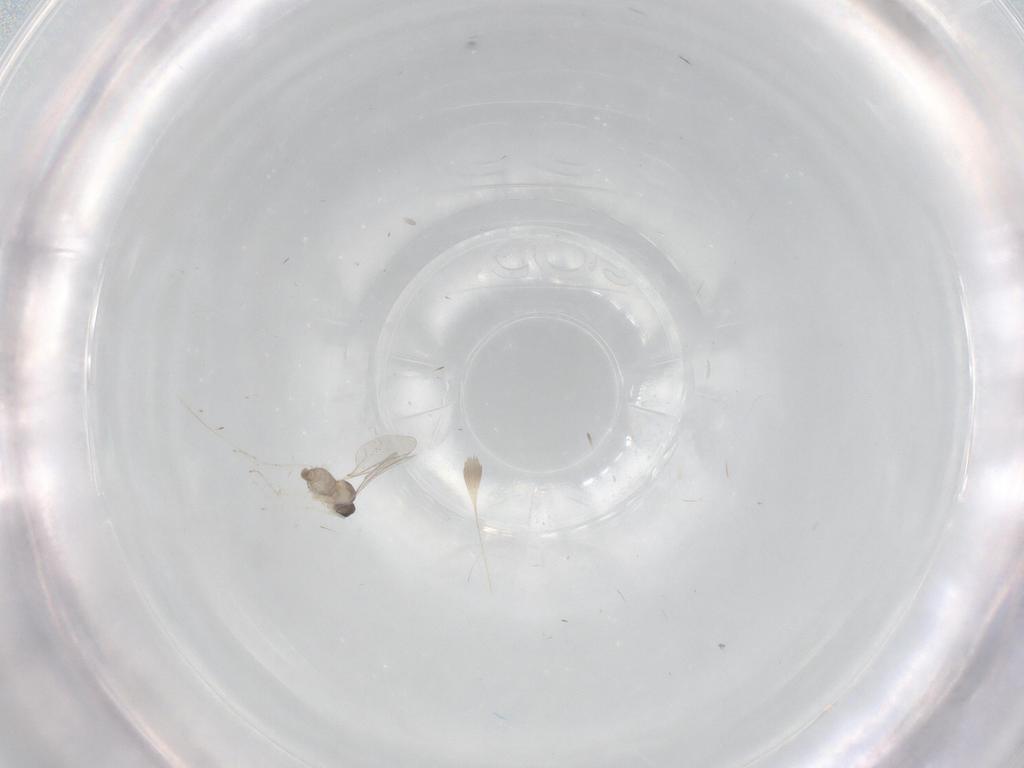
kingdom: Animalia
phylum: Arthropoda
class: Insecta
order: Diptera
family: Cecidomyiidae
